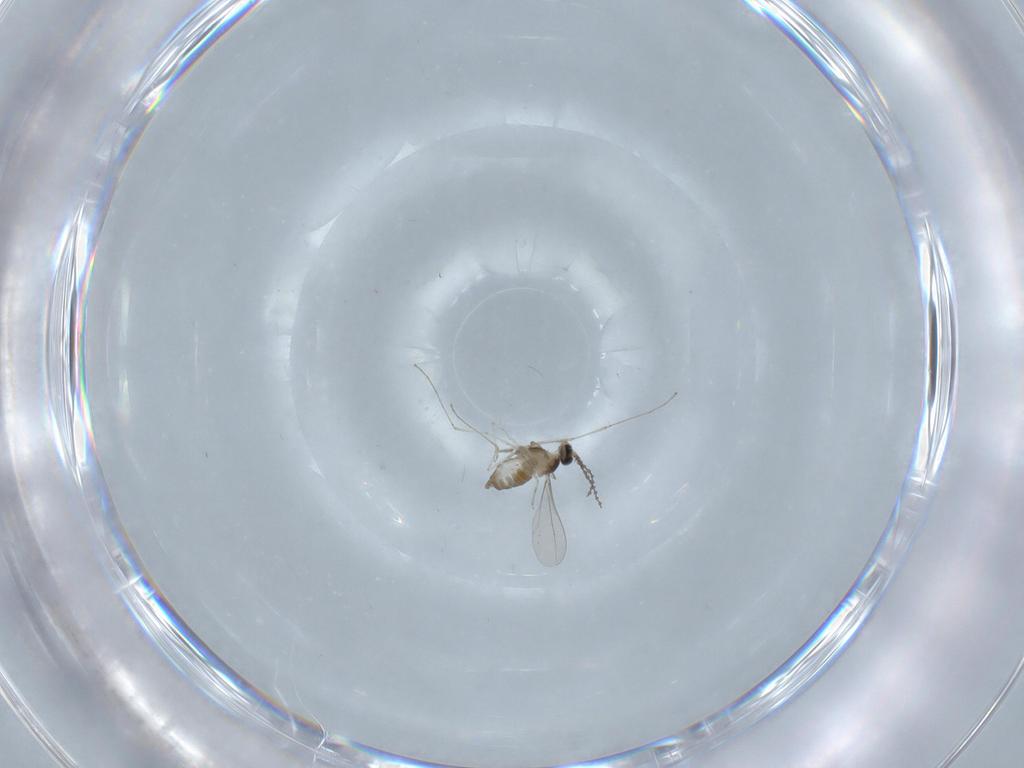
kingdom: Animalia
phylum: Arthropoda
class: Insecta
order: Diptera
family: Cecidomyiidae
